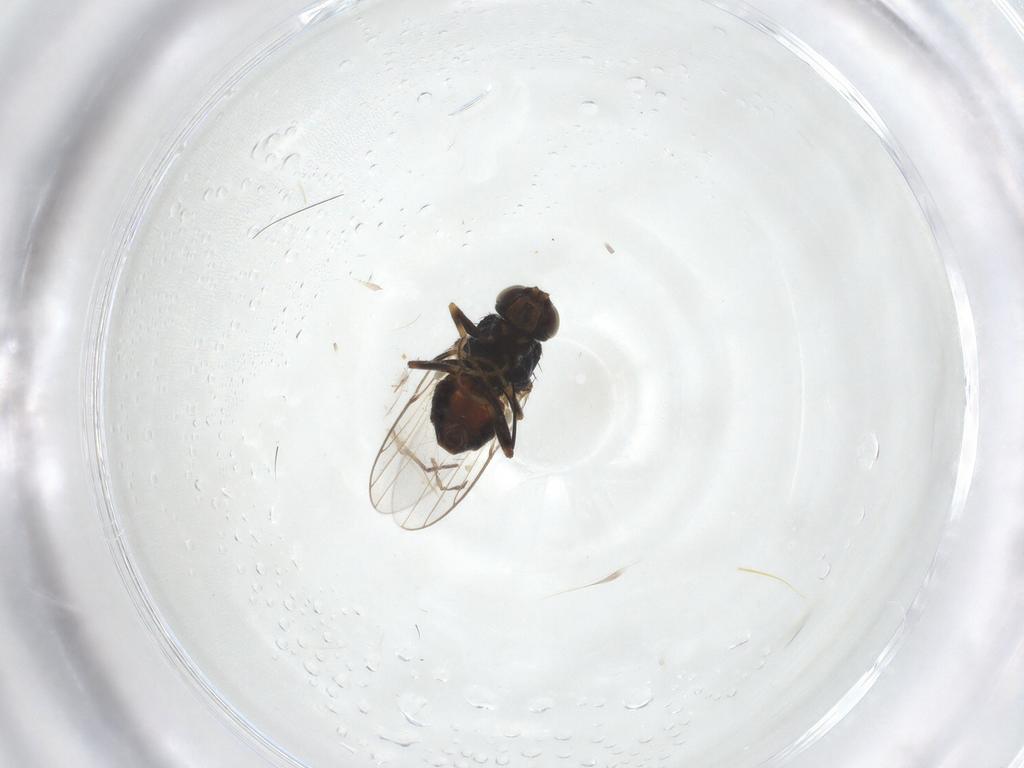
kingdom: Animalia
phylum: Arthropoda
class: Insecta
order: Diptera
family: Chloropidae
